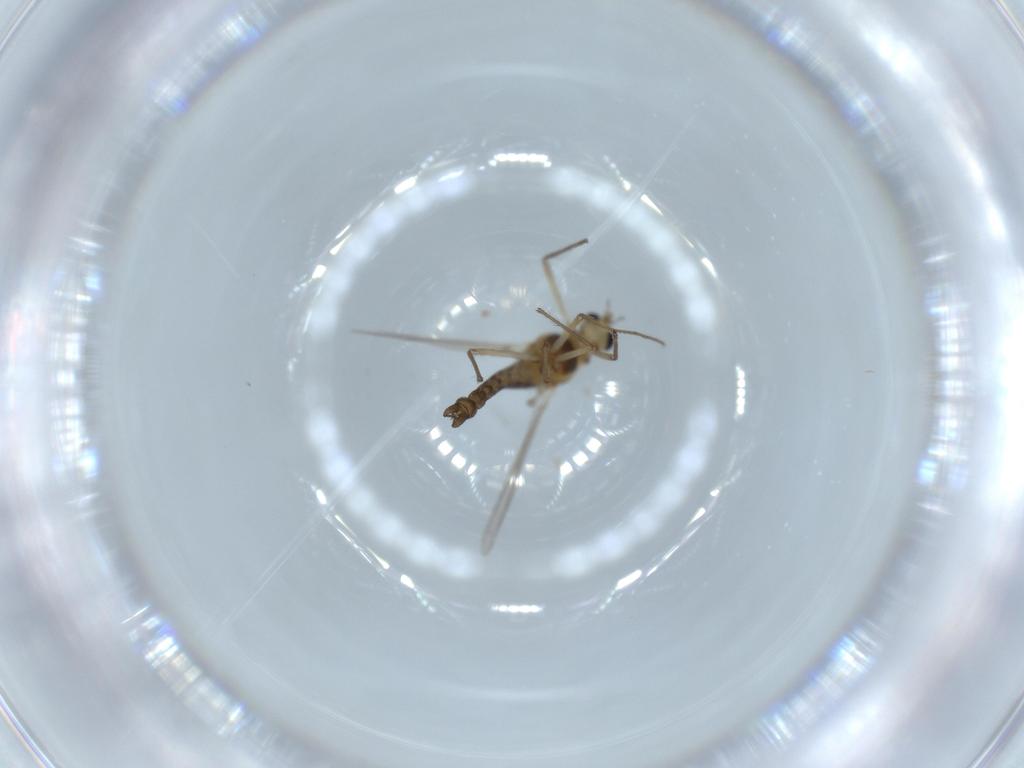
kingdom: Animalia
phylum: Arthropoda
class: Insecta
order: Diptera
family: Chironomidae
